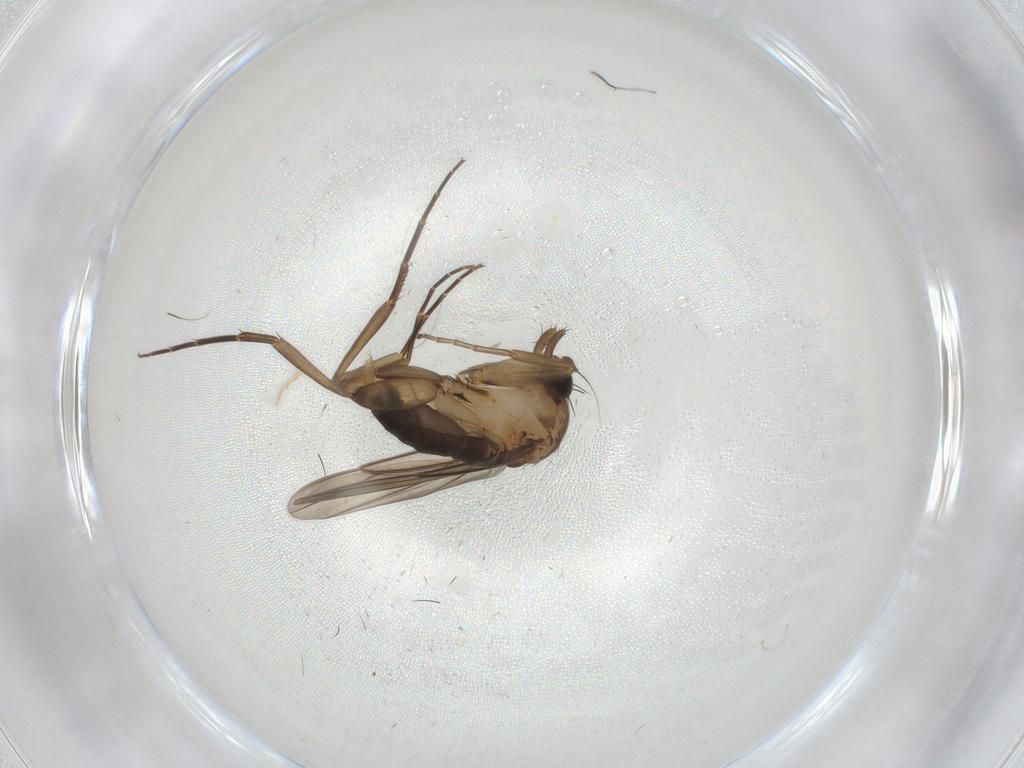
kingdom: Animalia
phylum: Arthropoda
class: Insecta
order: Diptera
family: Phoridae
